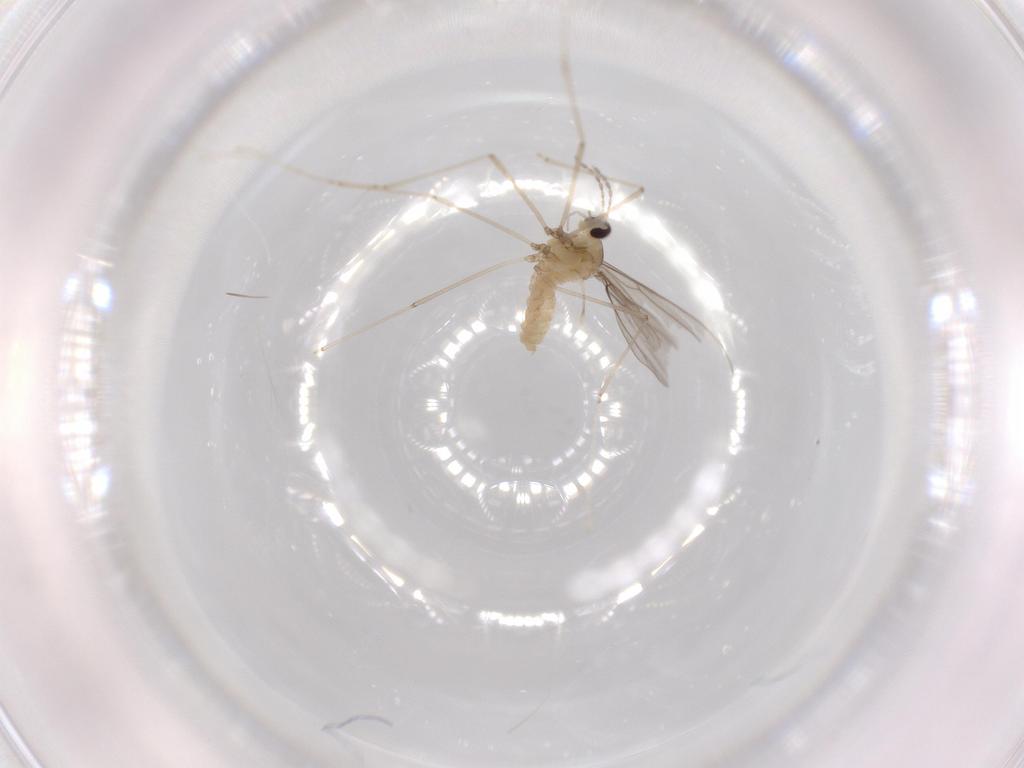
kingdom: Animalia
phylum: Arthropoda
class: Insecta
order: Diptera
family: Cecidomyiidae
